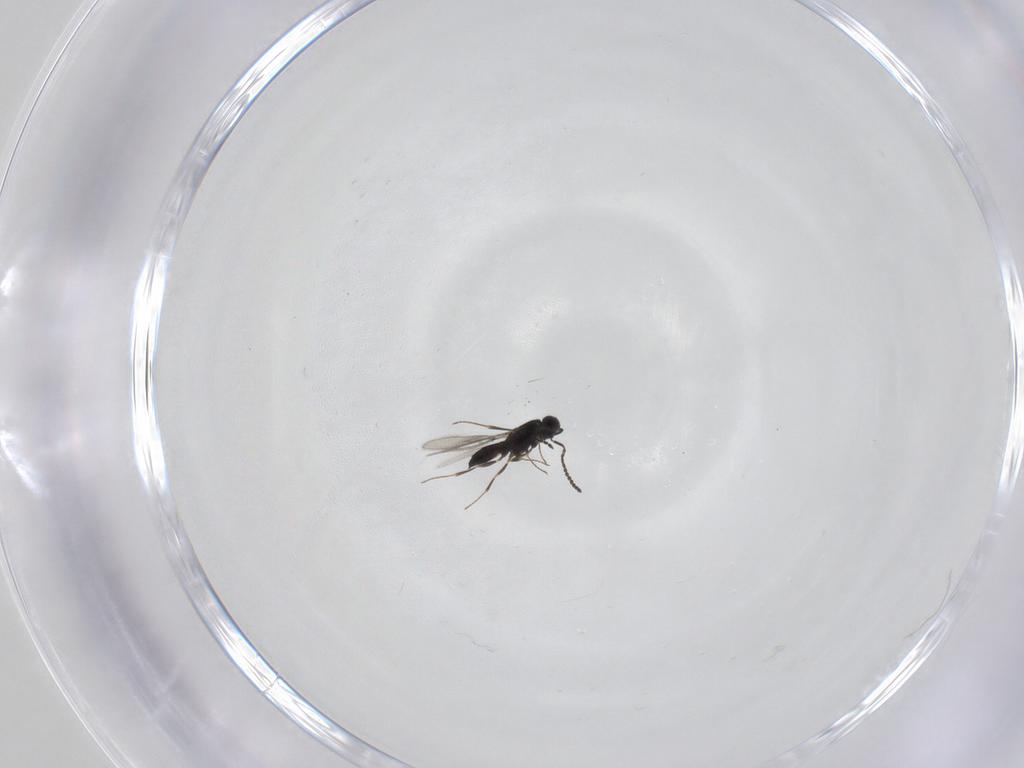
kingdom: Animalia
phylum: Arthropoda
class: Insecta
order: Hymenoptera
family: Scelionidae
